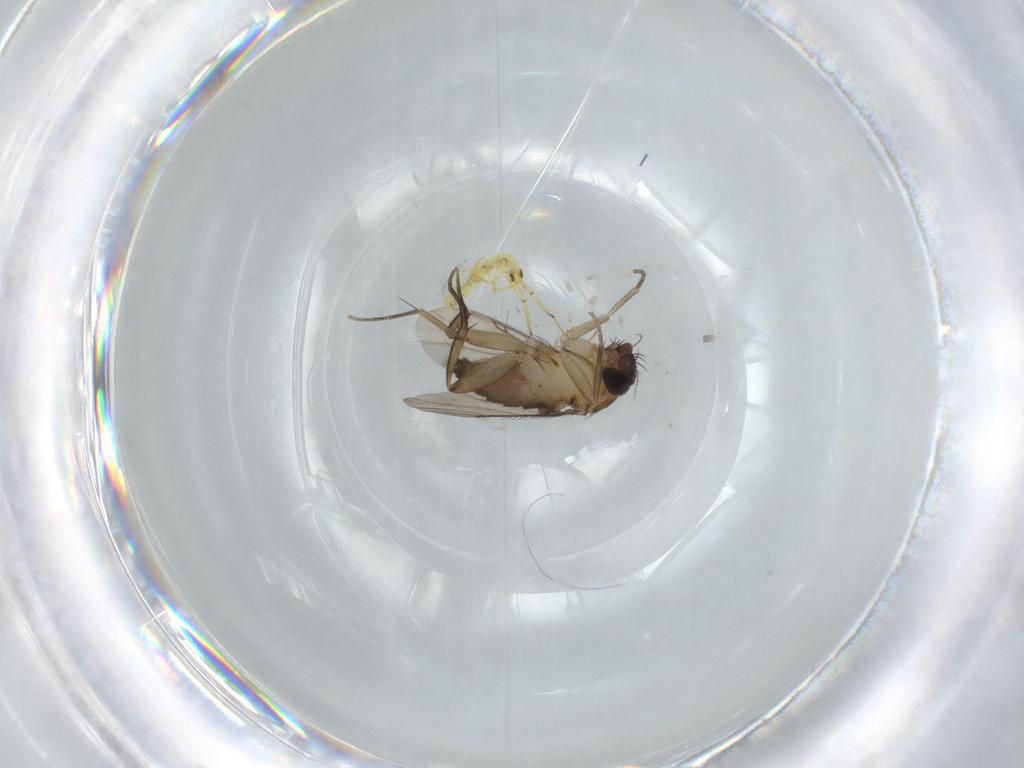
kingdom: Animalia
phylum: Arthropoda
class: Insecta
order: Diptera
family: Phoridae
